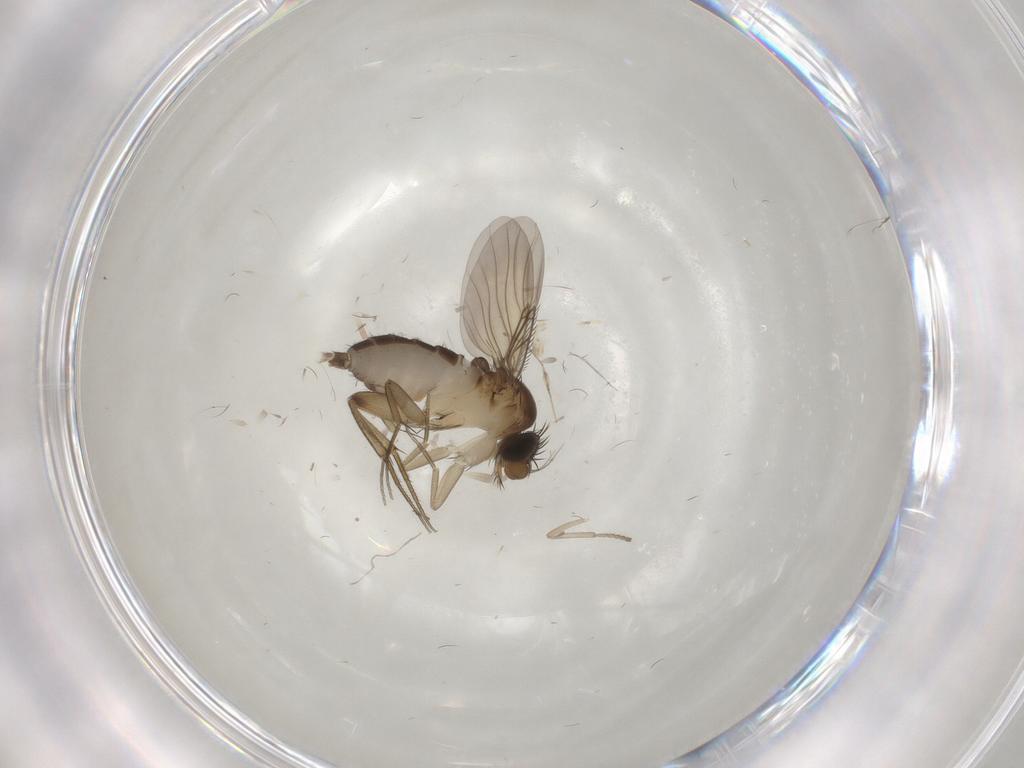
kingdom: Animalia
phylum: Arthropoda
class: Insecta
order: Diptera
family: Phoridae
